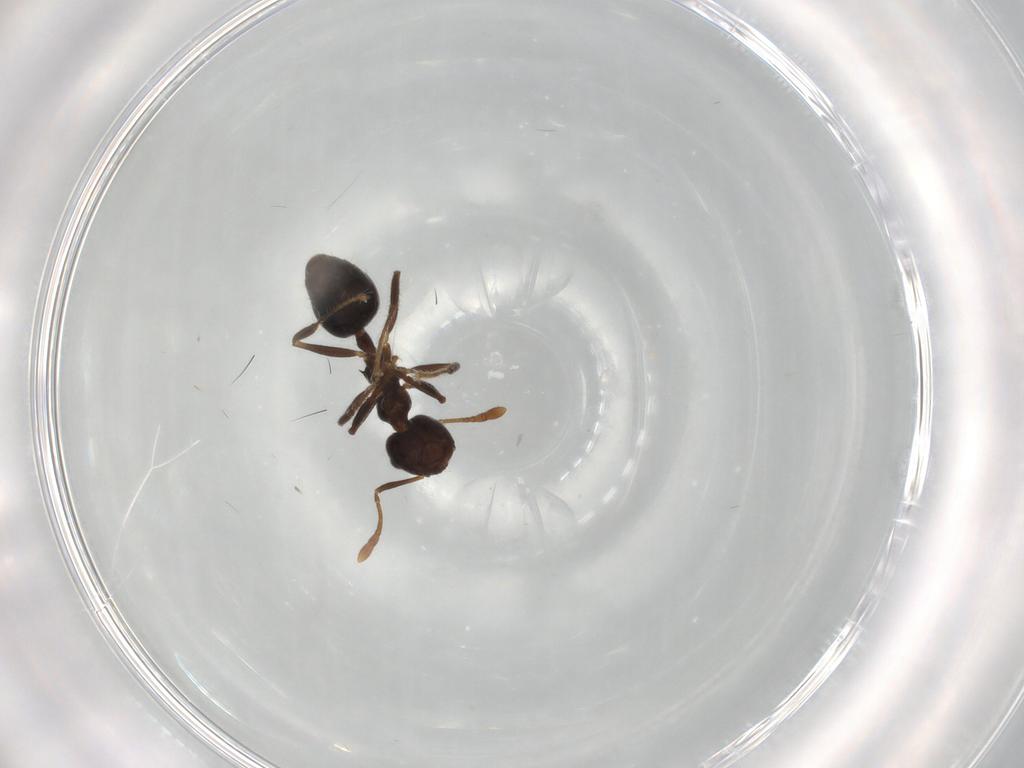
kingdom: Animalia
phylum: Arthropoda
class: Insecta
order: Hymenoptera
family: Formicidae
